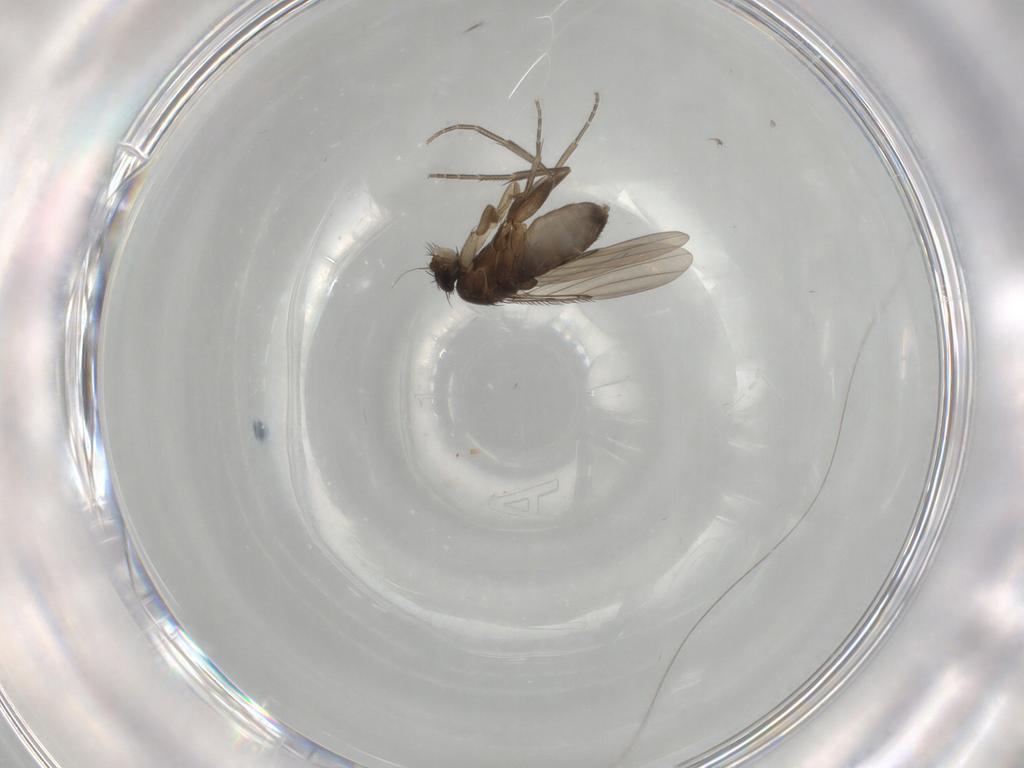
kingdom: Animalia
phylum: Arthropoda
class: Insecta
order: Diptera
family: Phoridae
